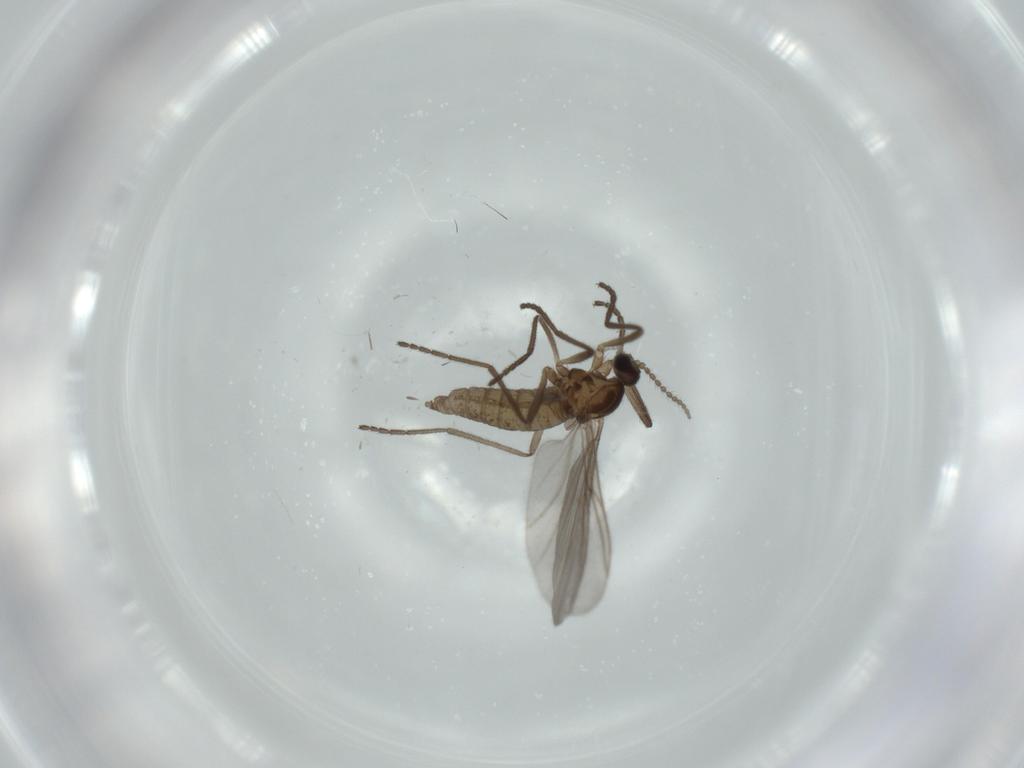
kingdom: Animalia
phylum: Arthropoda
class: Insecta
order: Diptera
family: Cecidomyiidae
